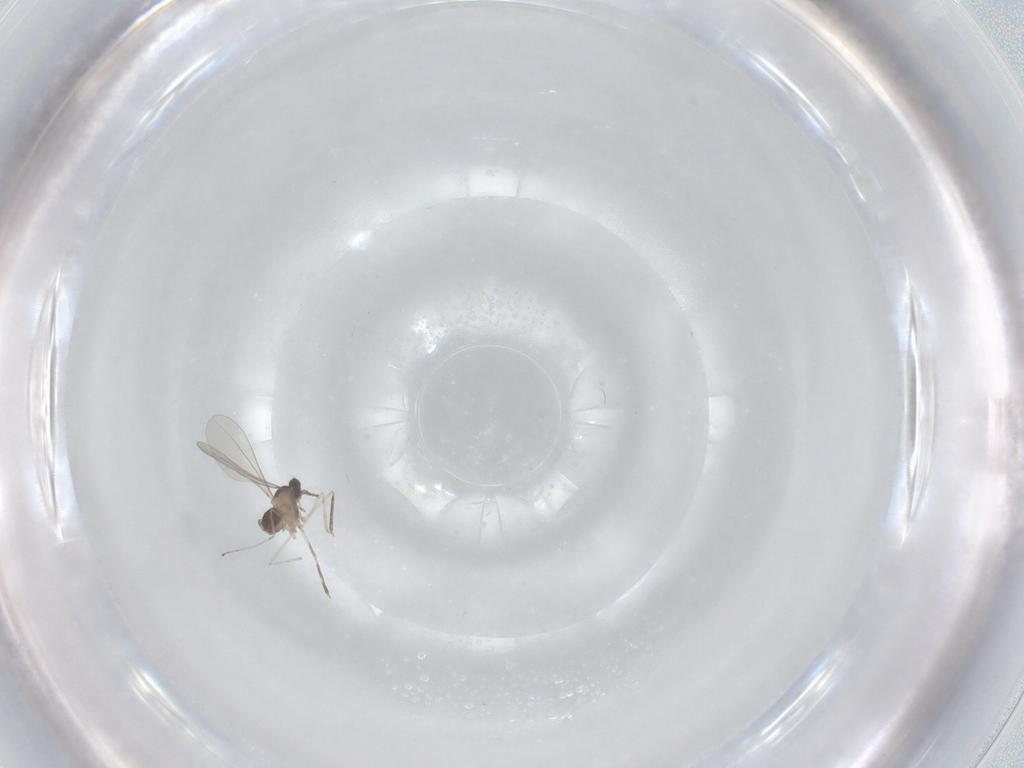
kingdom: Animalia
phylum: Arthropoda
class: Insecta
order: Diptera
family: Cecidomyiidae
